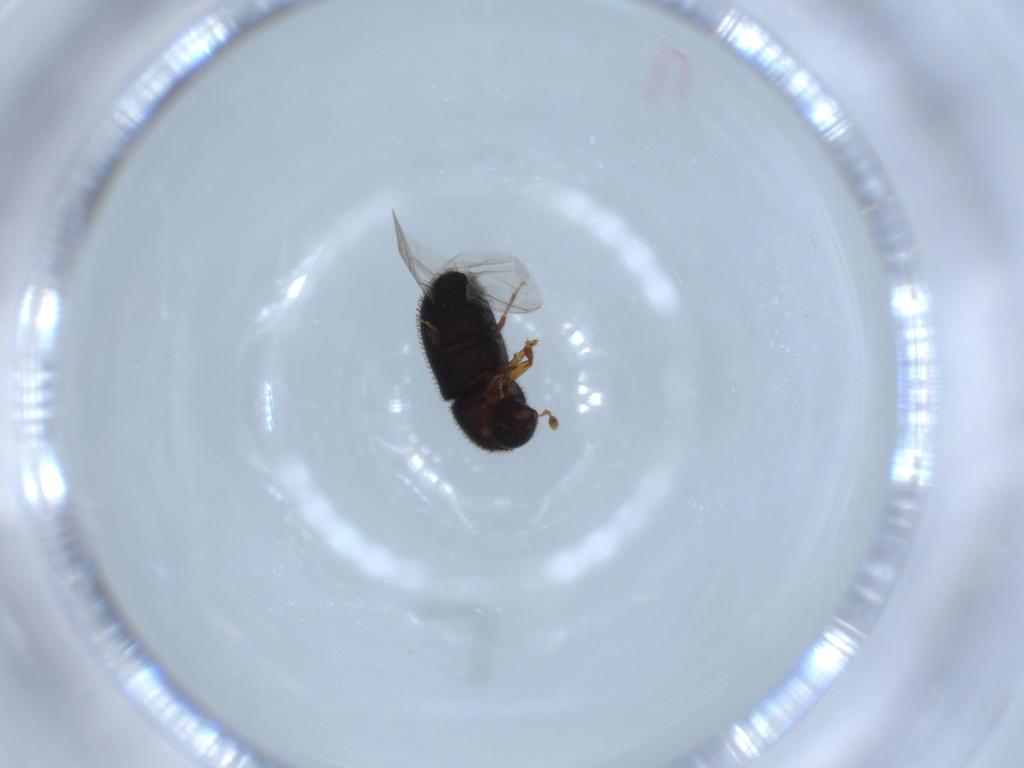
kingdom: Animalia
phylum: Arthropoda
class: Insecta
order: Coleoptera
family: Curculionidae
